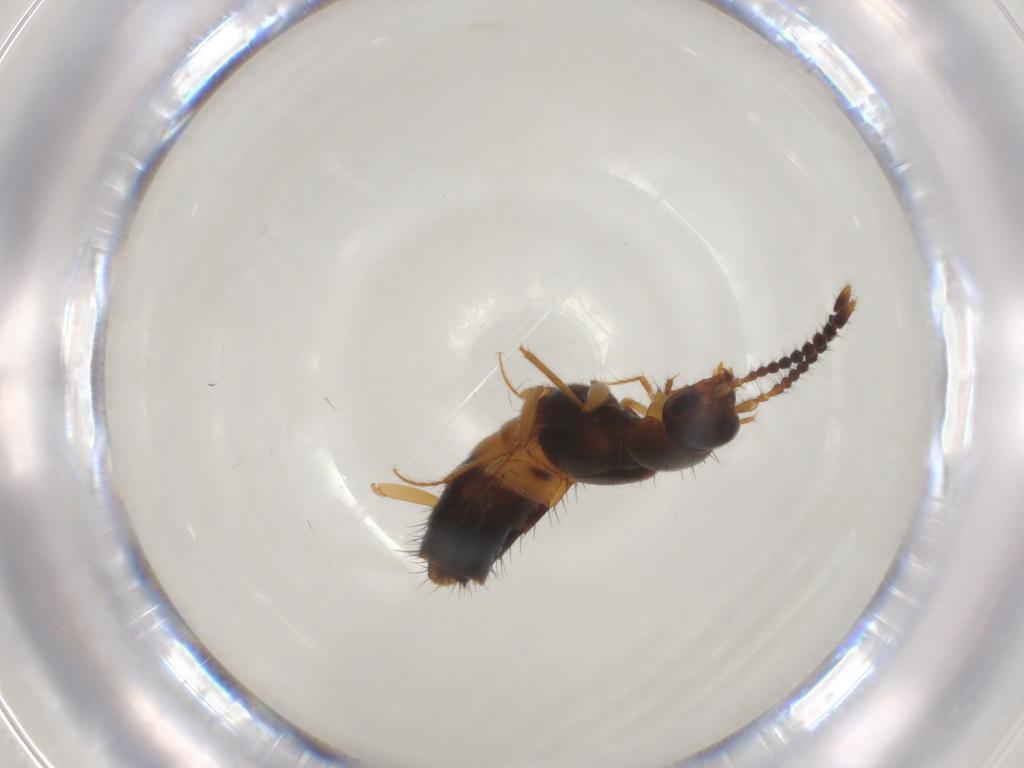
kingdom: Animalia
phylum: Arthropoda
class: Insecta
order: Coleoptera
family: Staphylinidae
